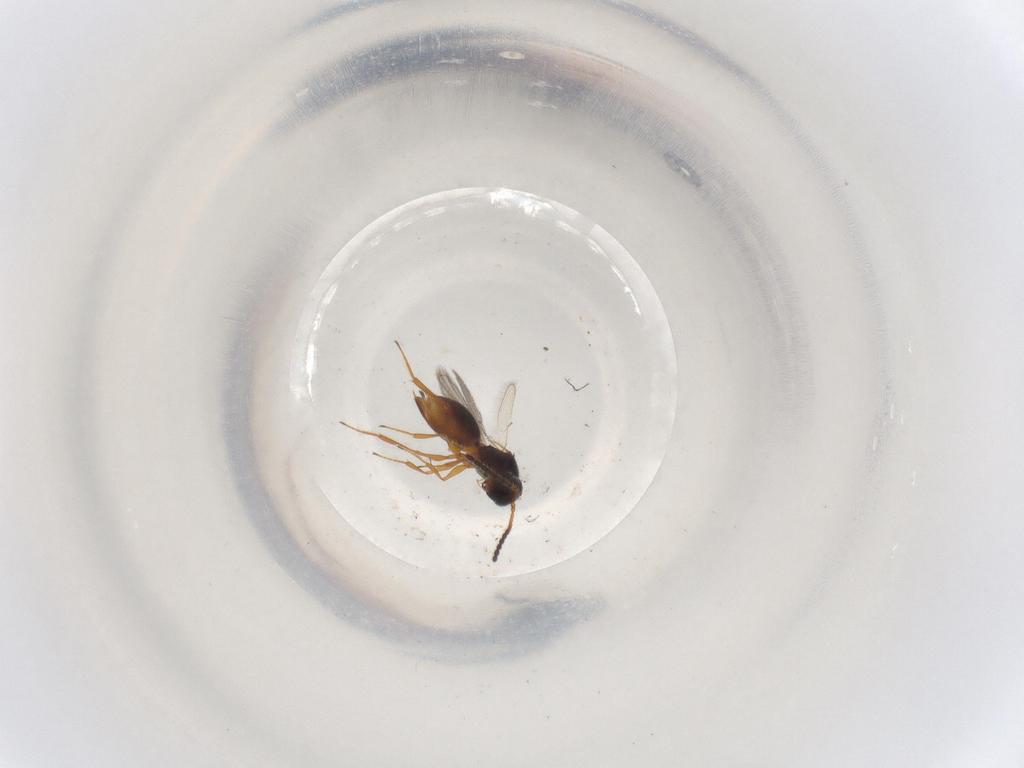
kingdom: Animalia
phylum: Arthropoda
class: Insecta
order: Hymenoptera
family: Figitidae
